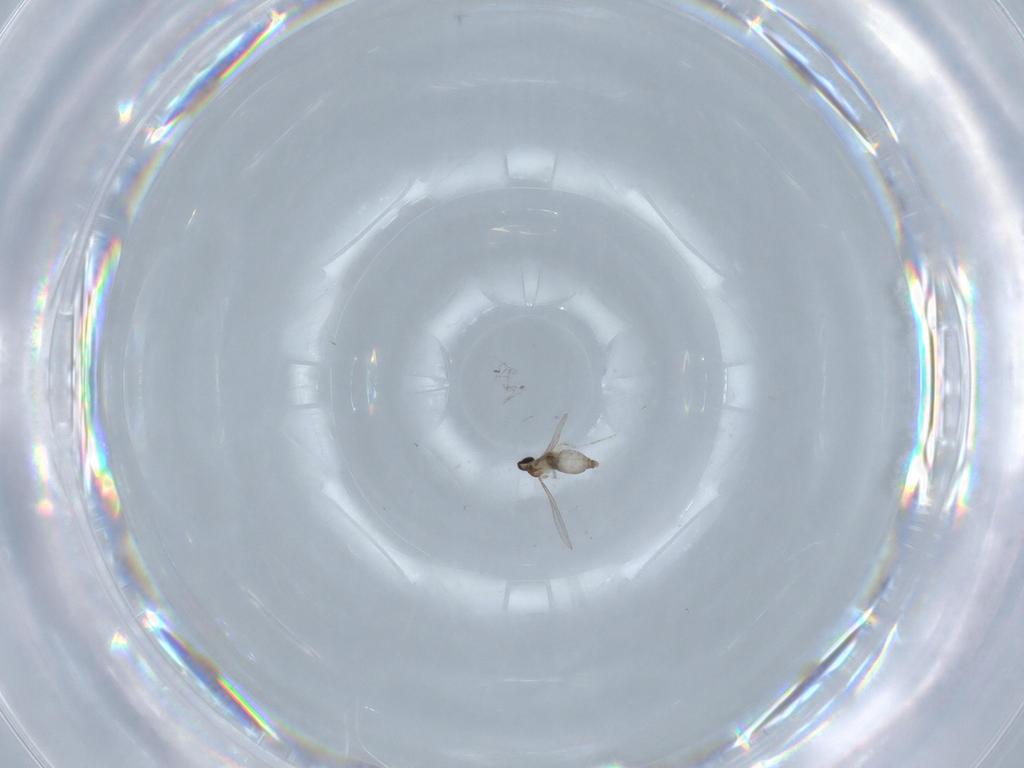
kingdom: Animalia
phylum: Arthropoda
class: Insecta
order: Diptera
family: Cecidomyiidae
